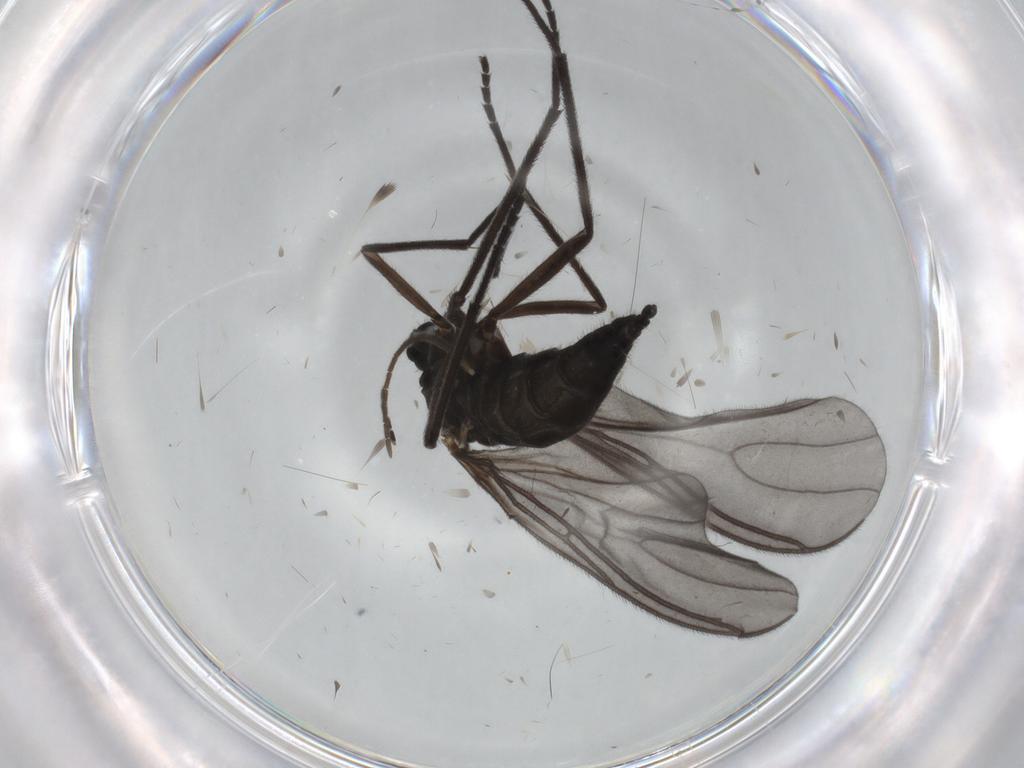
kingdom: Animalia
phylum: Arthropoda
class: Insecta
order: Diptera
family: Sciaridae
